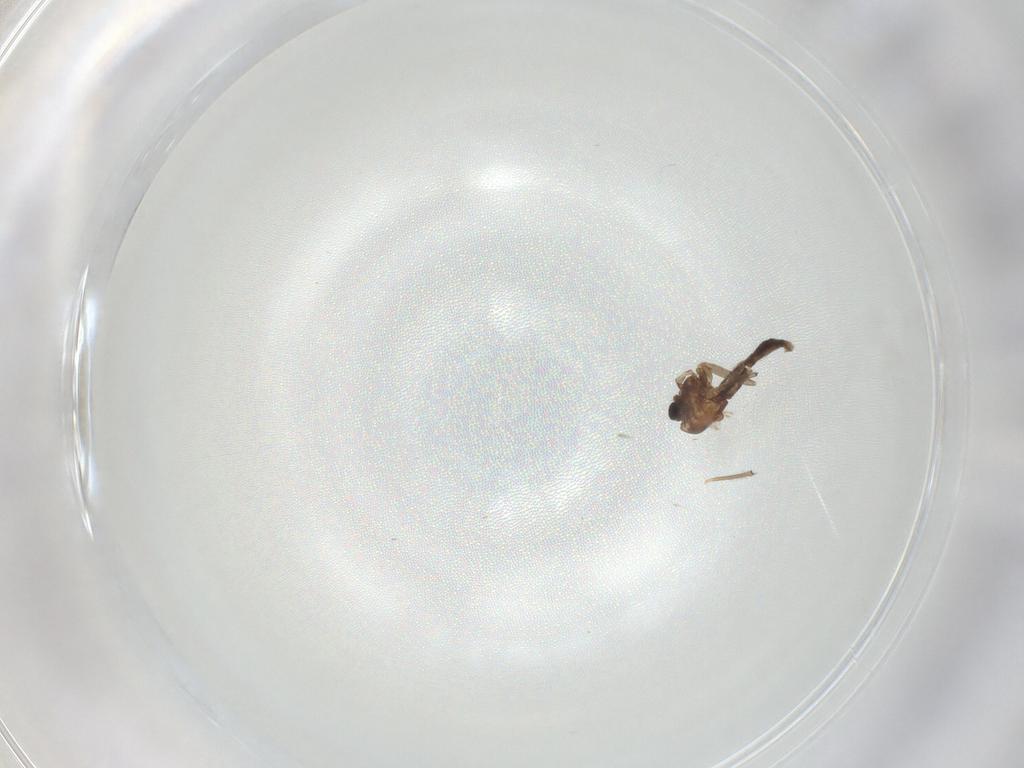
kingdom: Animalia
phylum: Arthropoda
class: Insecta
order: Diptera
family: Chironomidae
